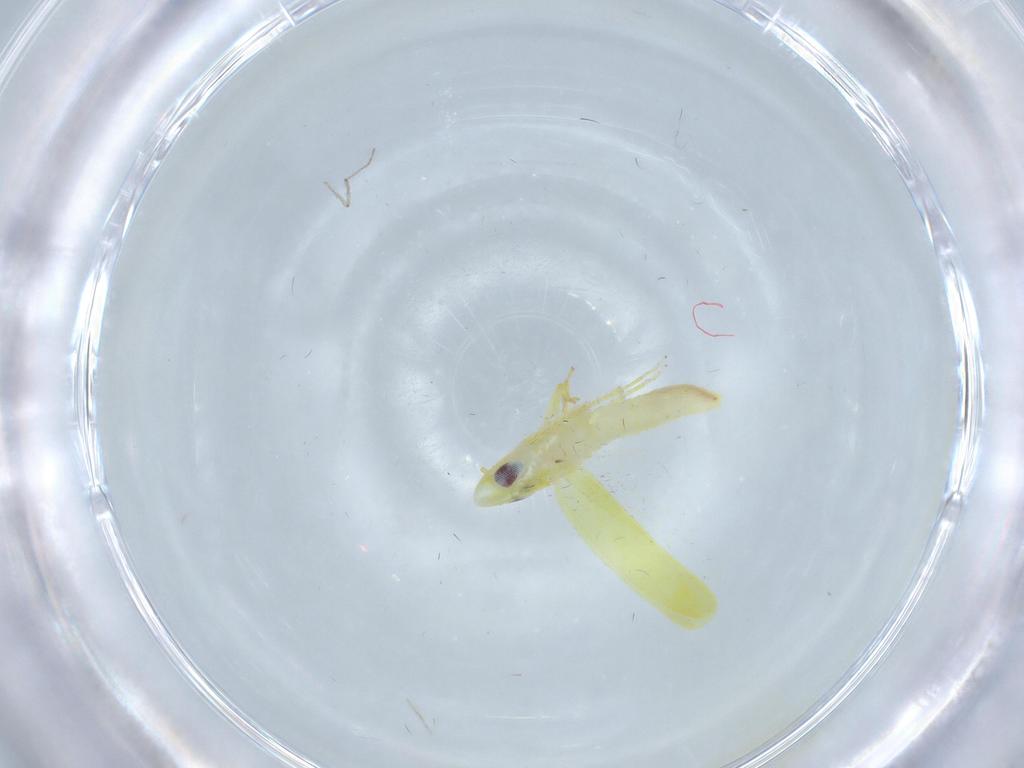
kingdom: Animalia
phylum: Arthropoda
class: Insecta
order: Hemiptera
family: Cicadellidae
